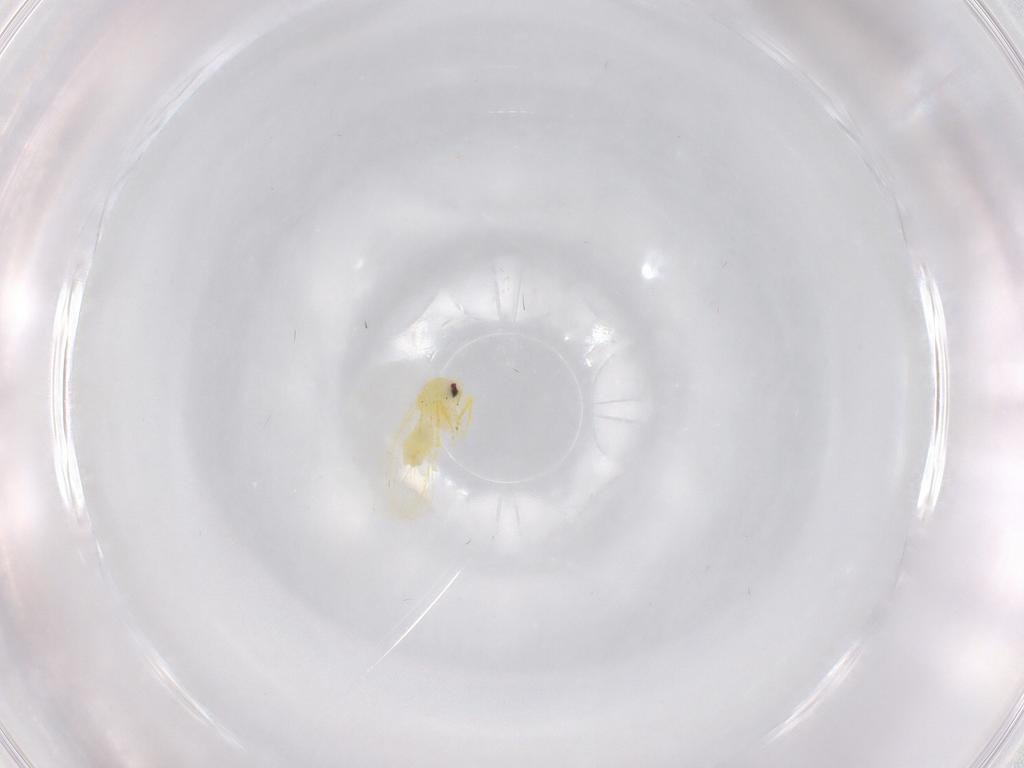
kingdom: Animalia
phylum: Arthropoda
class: Insecta
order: Hemiptera
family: Aleyrodidae
